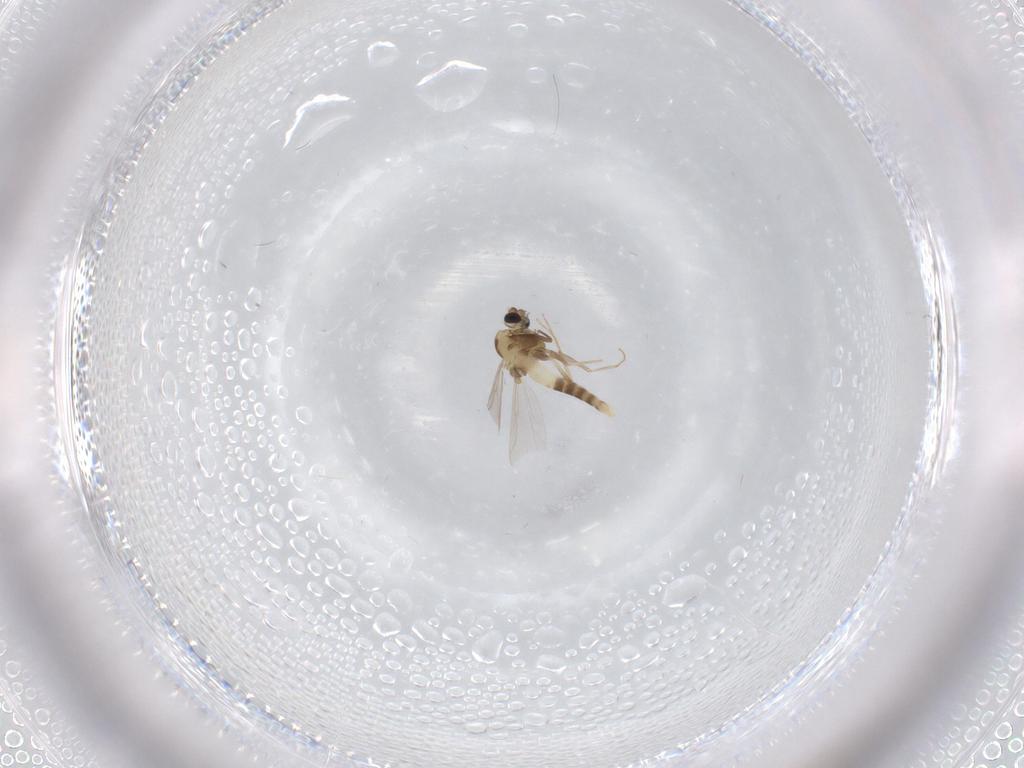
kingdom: Animalia
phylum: Arthropoda
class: Insecta
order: Diptera
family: Chironomidae
